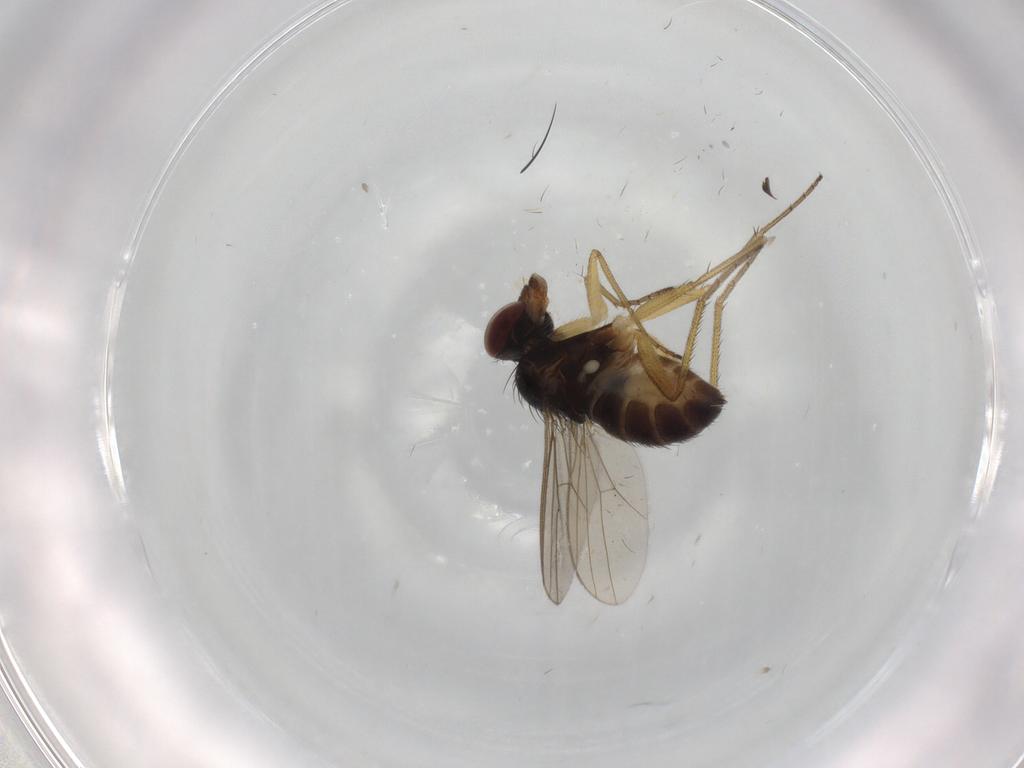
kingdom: Animalia
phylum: Arthropoda
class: Insecta
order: Diptera
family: Dolichopodidae
